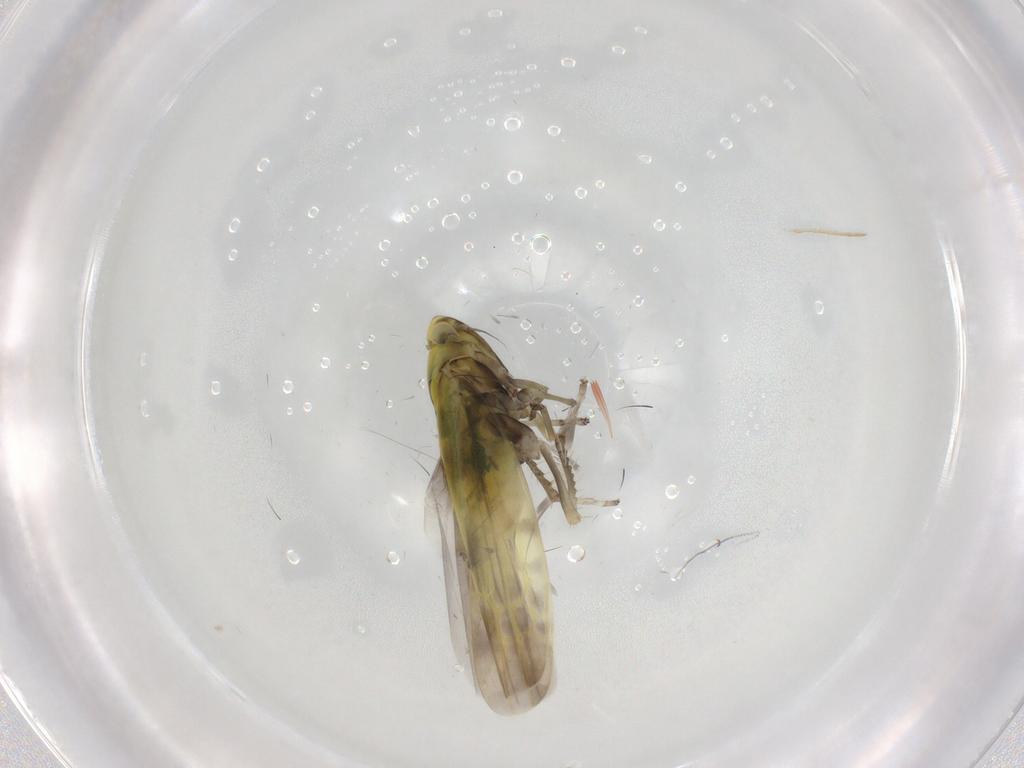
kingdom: Animalia
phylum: Arthropoda
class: Insecta
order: Hemiptera
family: Cicadellidae
